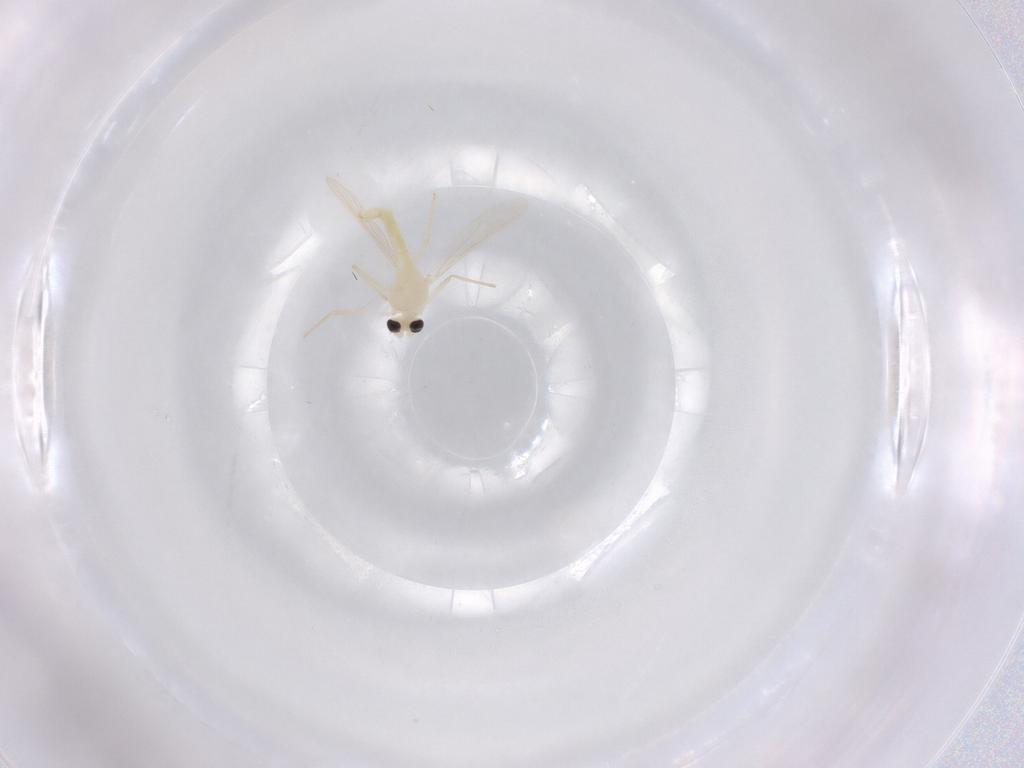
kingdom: Animalia
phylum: Arthropoda
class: Insecta
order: Diptera
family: Chironomidae
